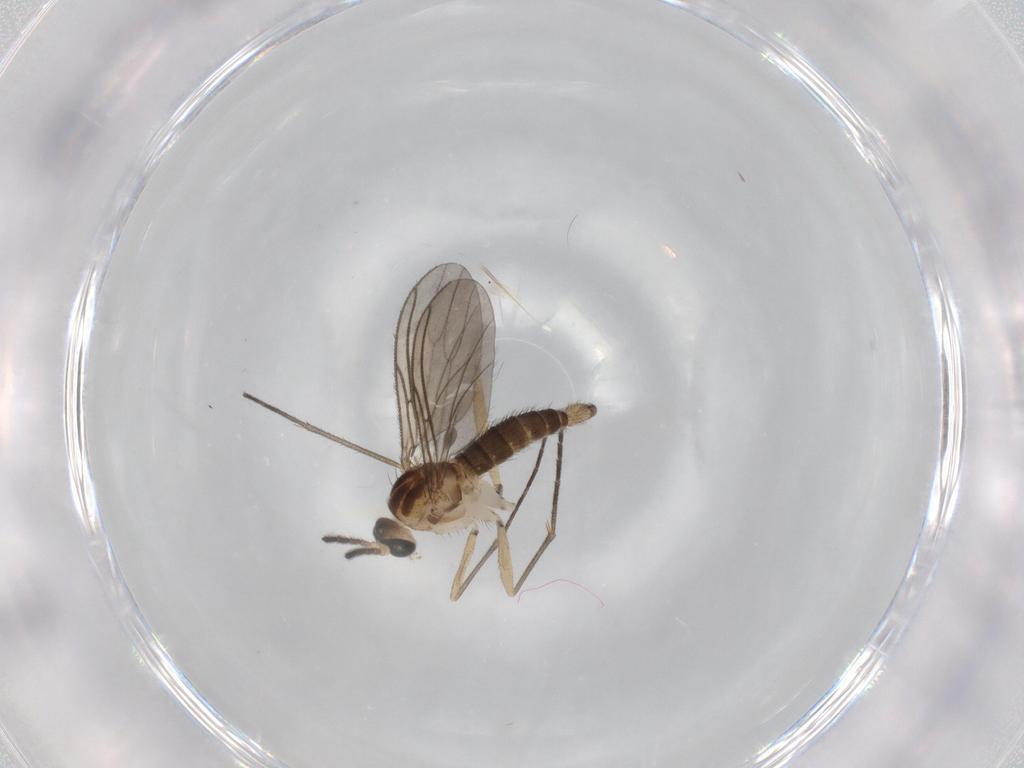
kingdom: Animalia
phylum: Arthropoda
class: Insecta
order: Diptera
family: Sciaridae
